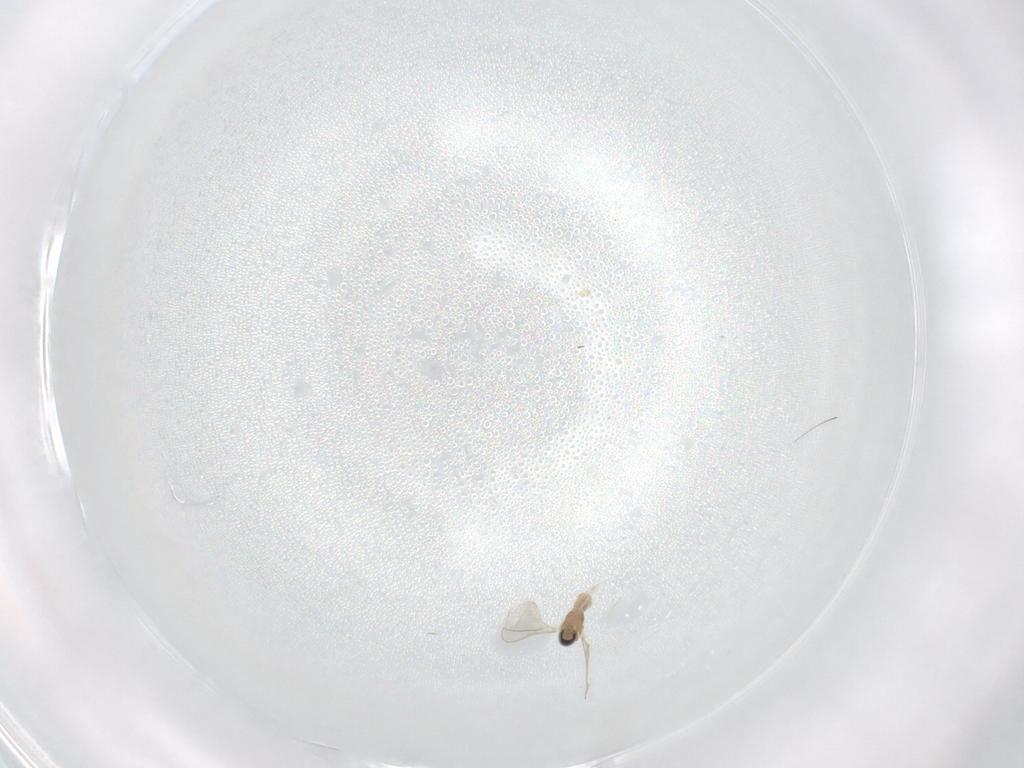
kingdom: Animalia
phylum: Arthropoda
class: Insecta
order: Diptera
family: Cecidomyiidae
